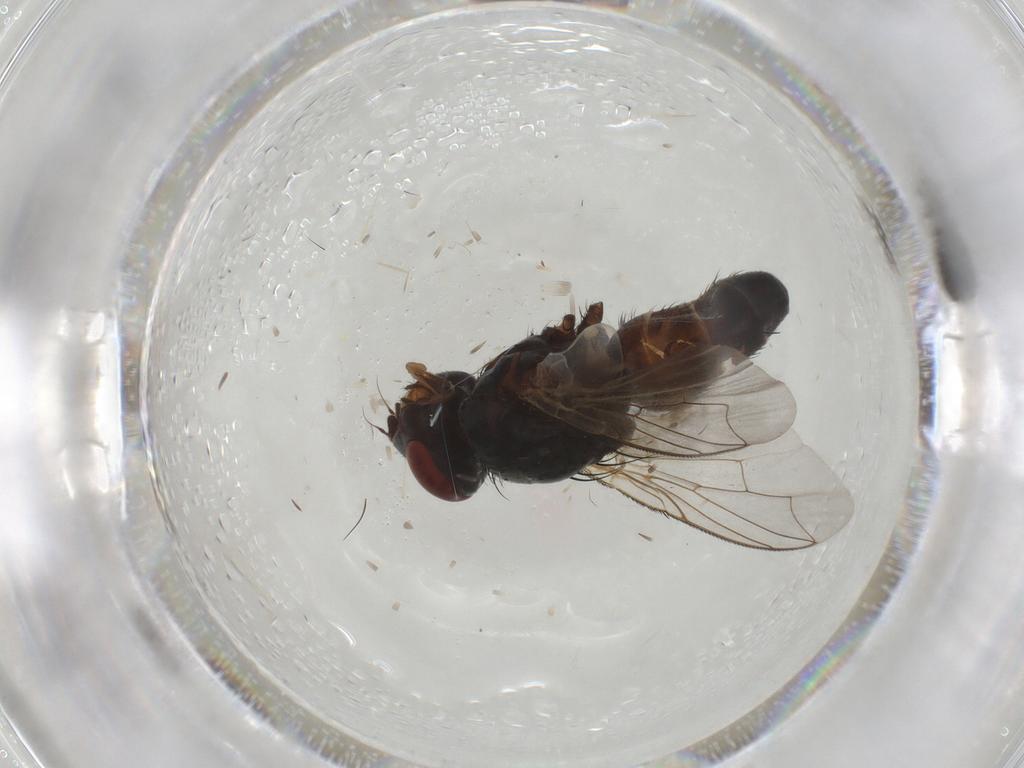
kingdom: Animalia
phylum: Arthropoda
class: Insecta
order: Diptera
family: Sarcophagidae
